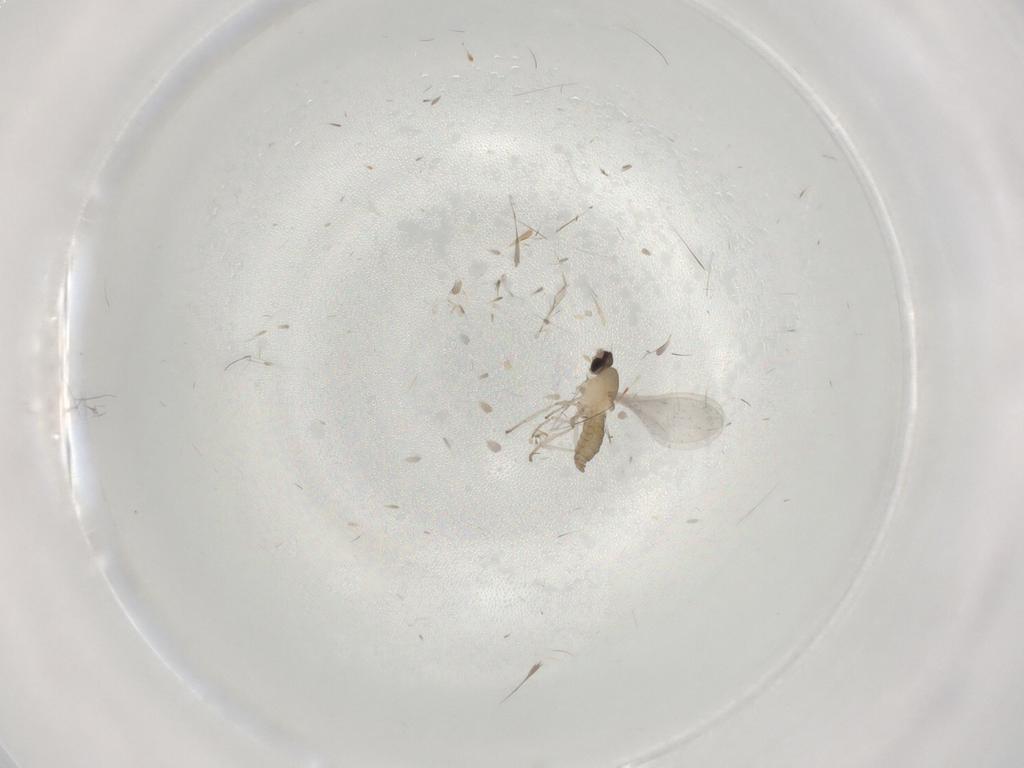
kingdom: Animalia
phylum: Arthropoda
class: Insecta
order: Diptera
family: Cecidomyiidae
